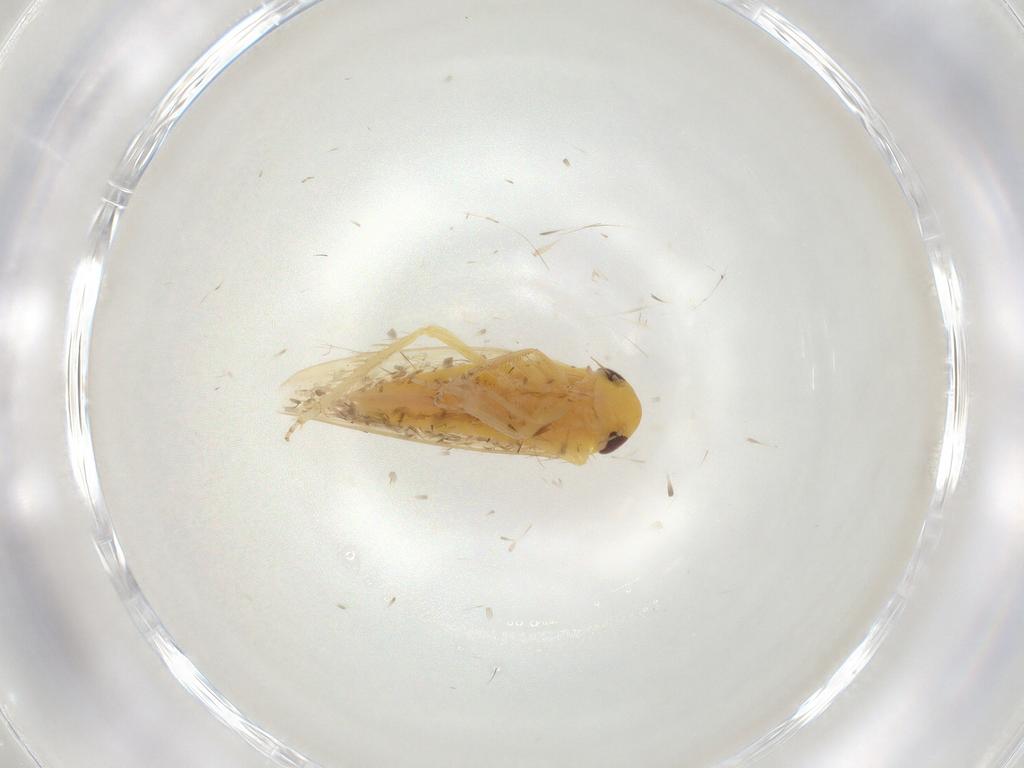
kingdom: Animalia
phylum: Arthropoda
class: Insecta
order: Hemiptera
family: Cicadellidae
